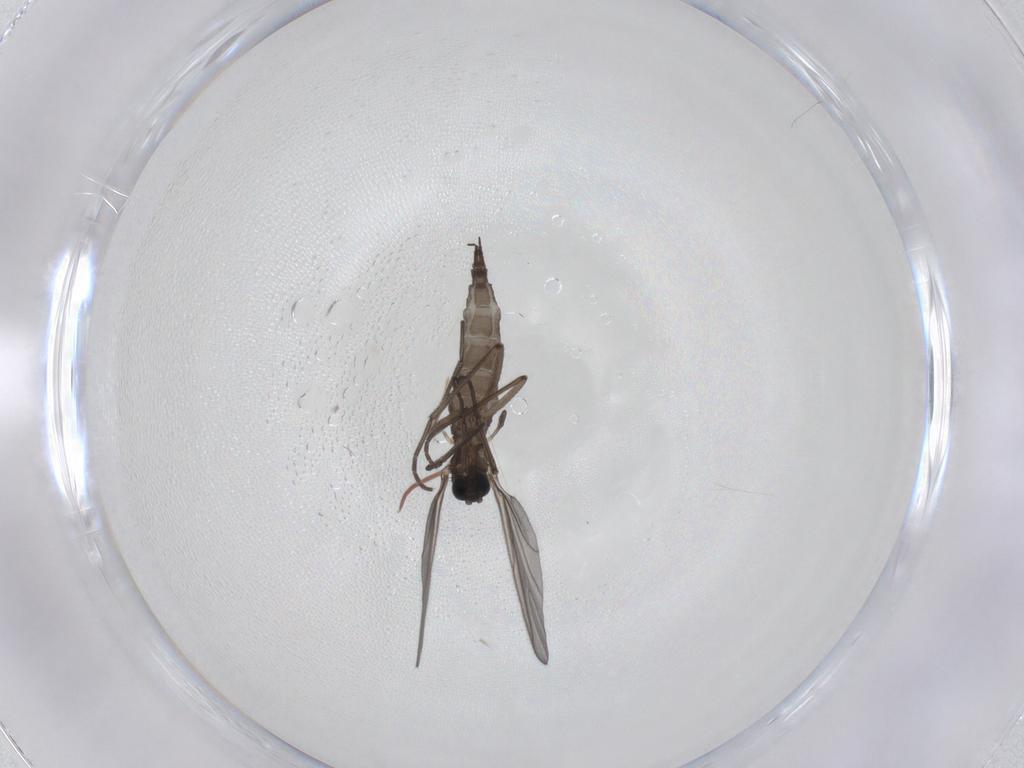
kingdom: Animalia
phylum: Arthropoda
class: Insecta
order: Diptera
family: Sciaridae
